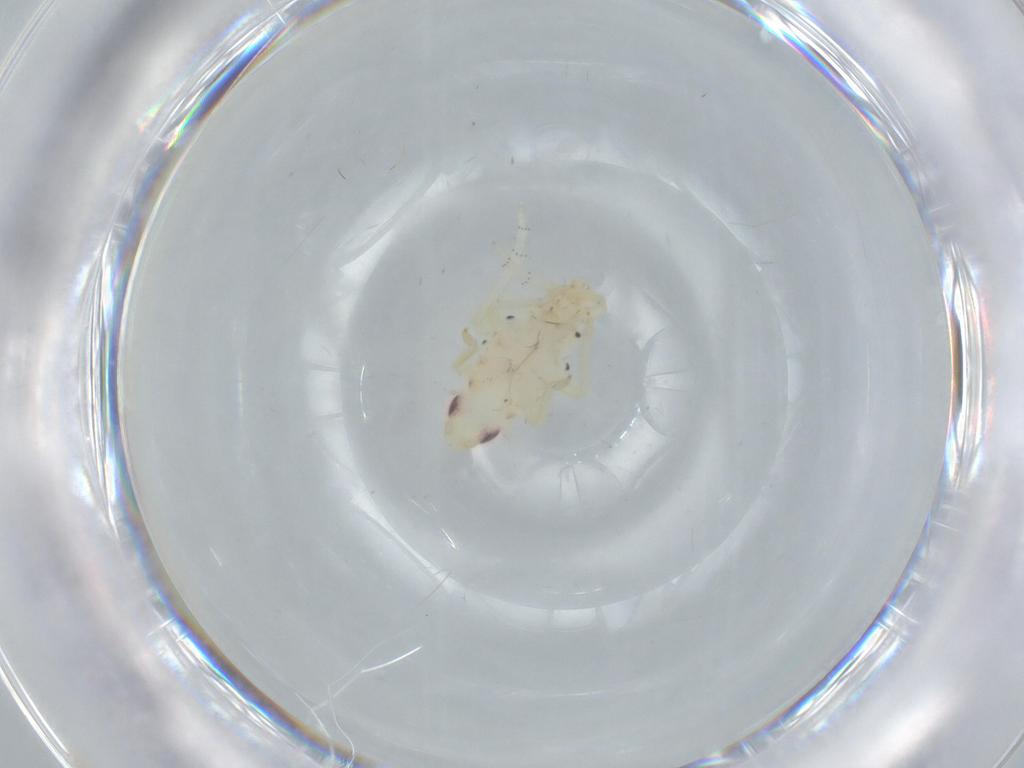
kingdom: Animalia
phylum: Arthropoda
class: Insecta
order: Hemiptera
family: Tropiduchidae
